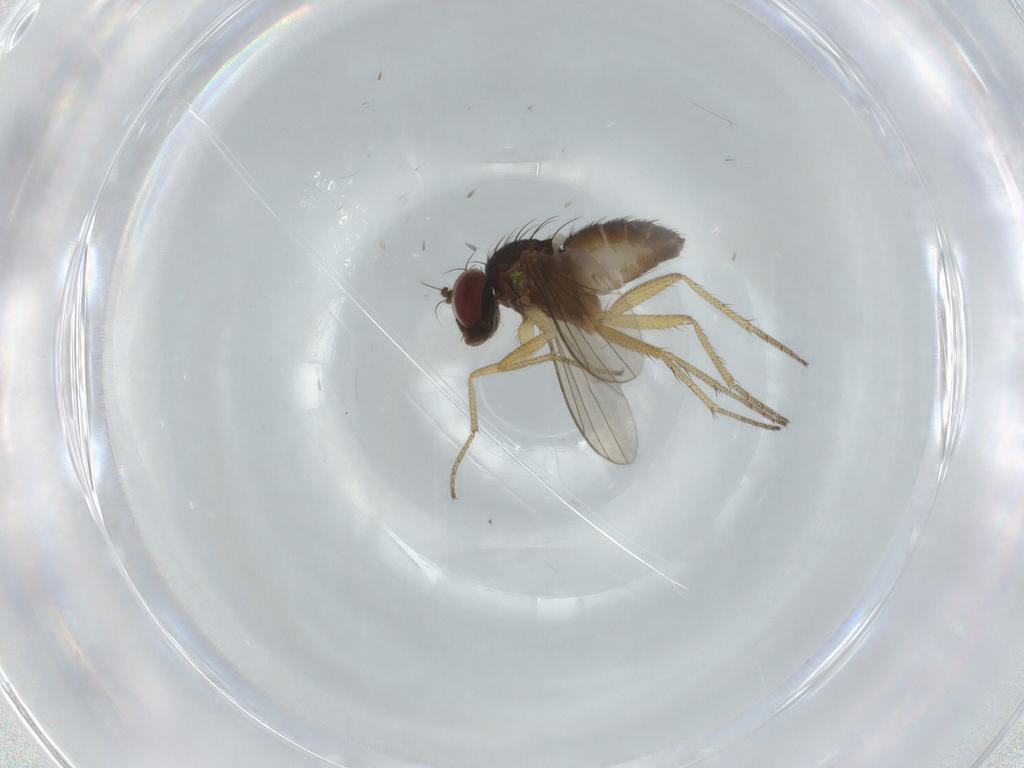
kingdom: Animalia
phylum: Arthropoda
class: Insecta
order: Diptera
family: Dolichopodidae
